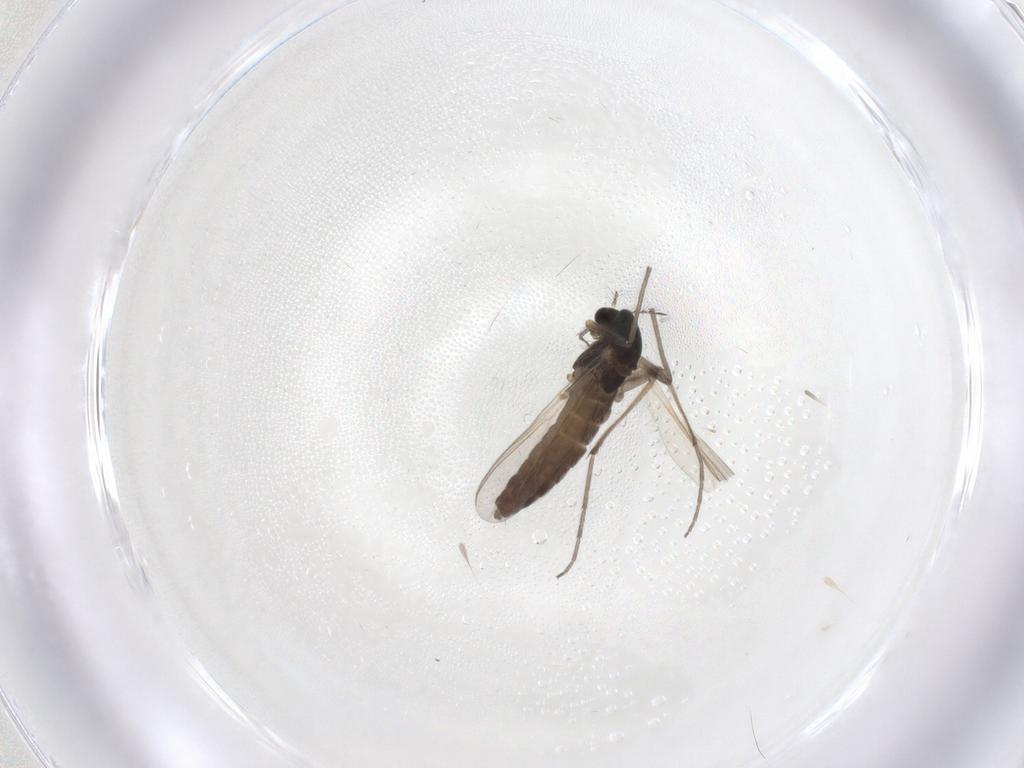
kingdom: Animalia
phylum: Arthropoda
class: Insecta
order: Diptera
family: Chironomidae
